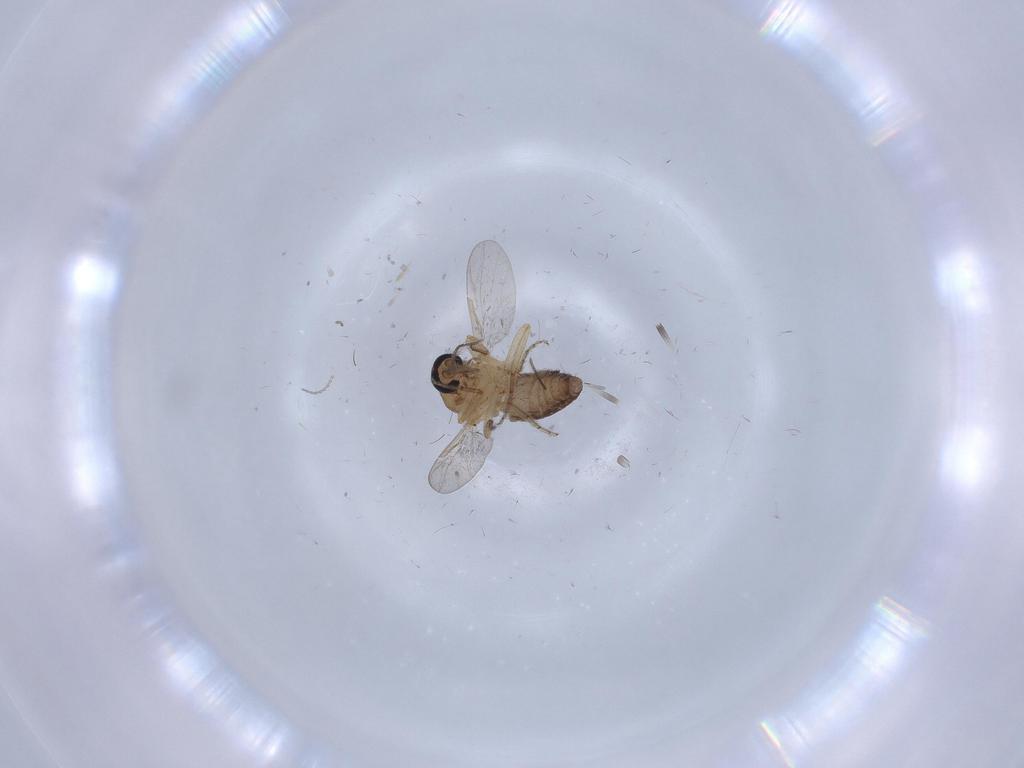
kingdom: Animalia
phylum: Arthropoda
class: Insecta
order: Diptera
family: Ceratopogonidae
